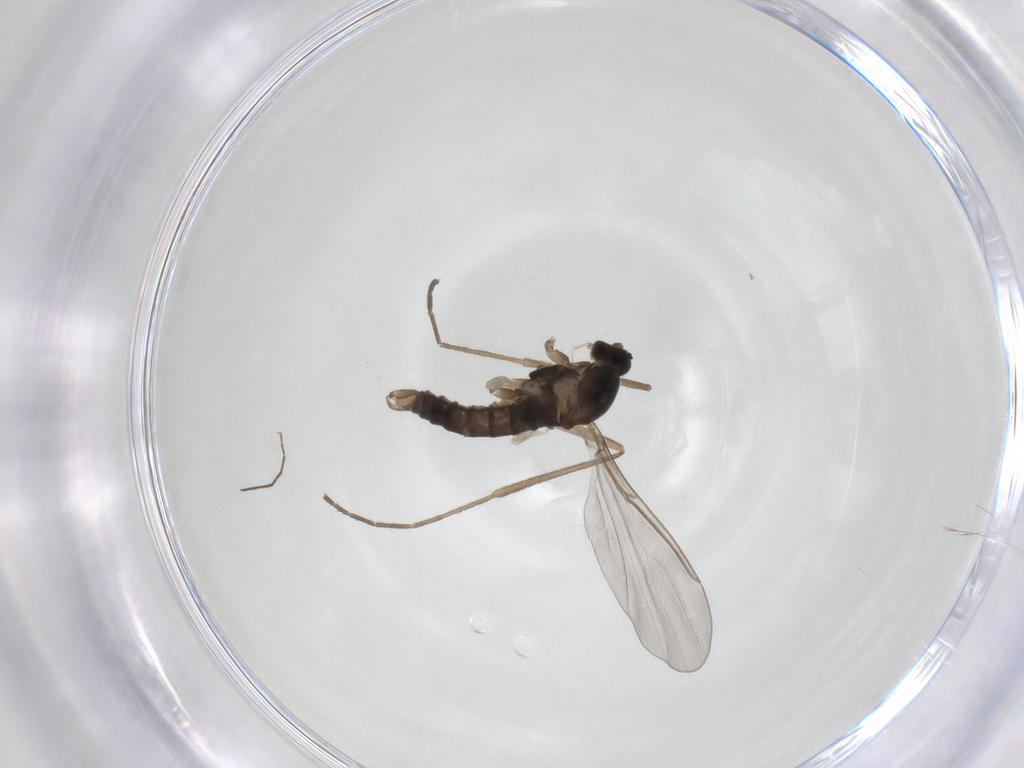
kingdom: Animalia
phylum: Arthropoda
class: Insecta
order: Diptera
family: Cecidomyiidae
